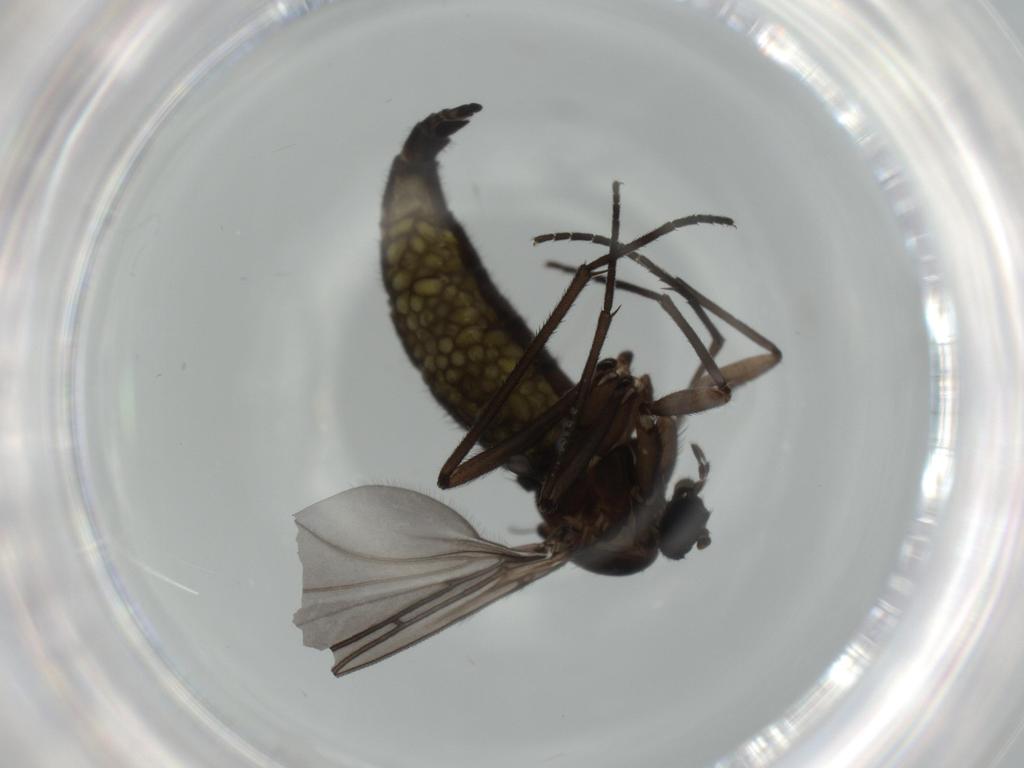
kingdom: Animalia
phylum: Arthropoda
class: Insecta
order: Diptera
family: Sciaridae
